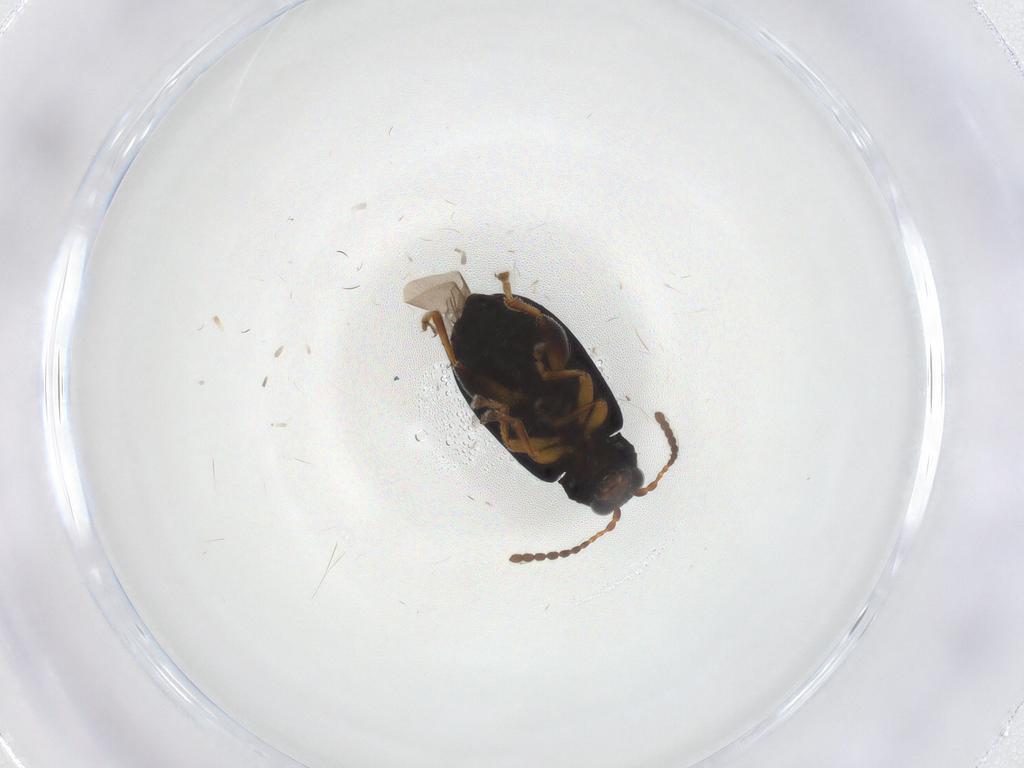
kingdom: Animalia
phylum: Arthropoda
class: Insecta
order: Coleoptera
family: Chrysomelidae
